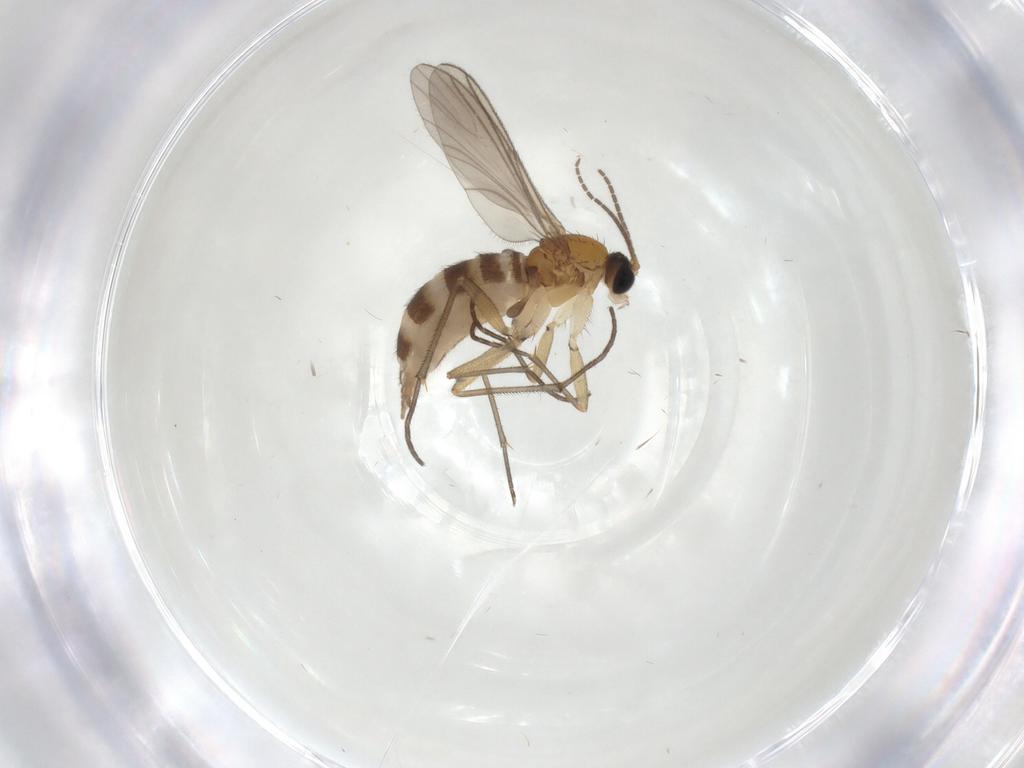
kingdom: Animalia
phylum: Arthropoda
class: Insecta
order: Diptera
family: Sciaridae
